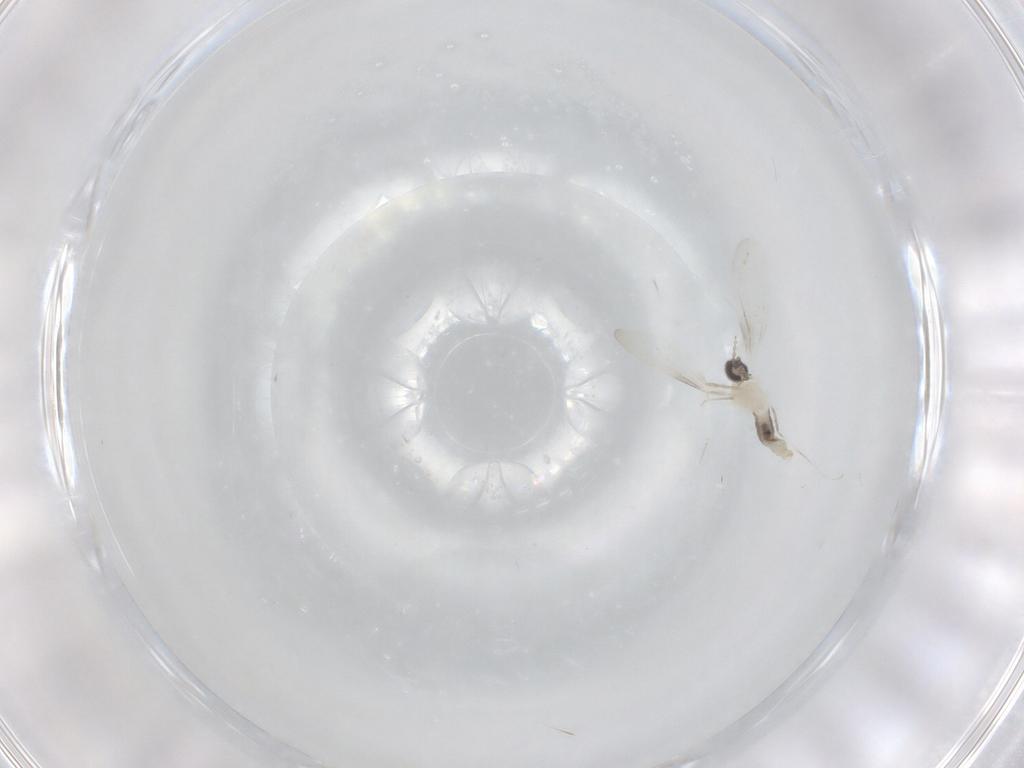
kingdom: Animalia
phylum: Arthropoda
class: Insecta
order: Diptera
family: Cecidomyiidae
